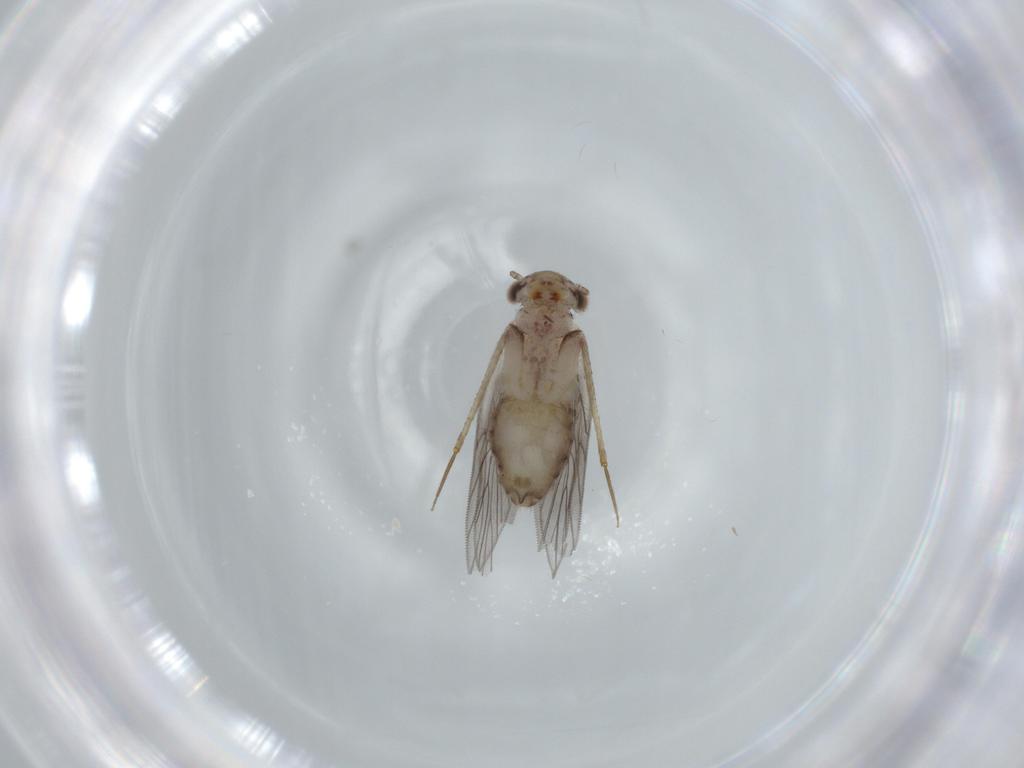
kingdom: Animalia
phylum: Arthropoda
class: Insecta
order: Psocodea
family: Lepidopsocidae
